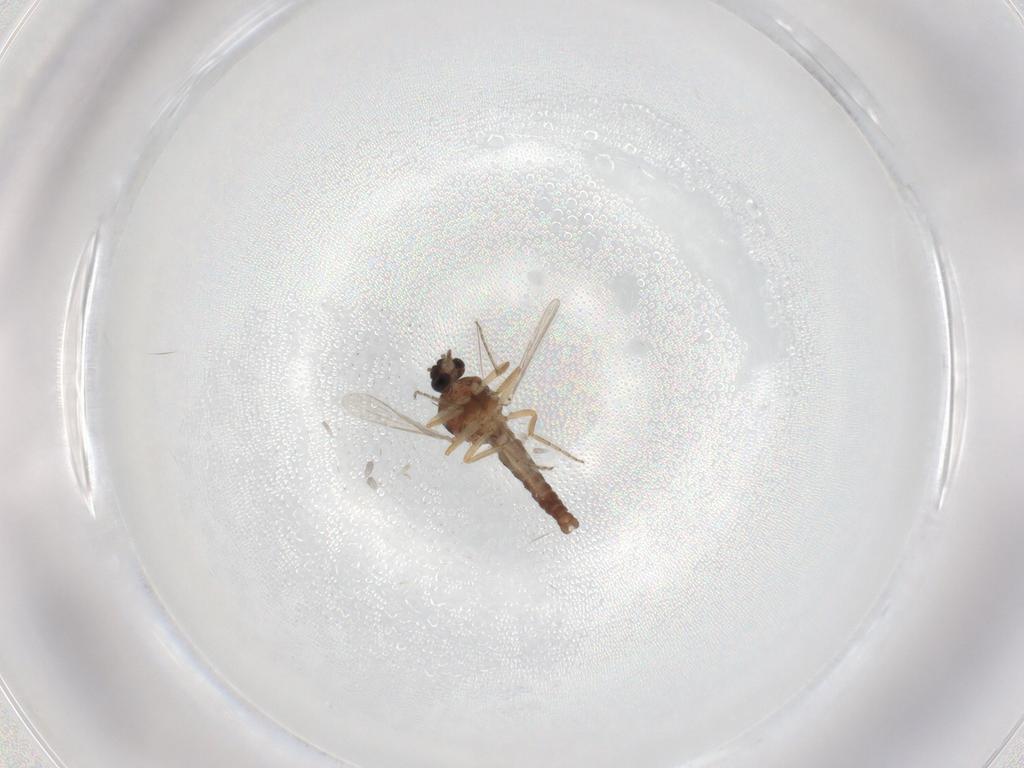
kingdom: Animalia
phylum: Arthropoda
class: Insecta
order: Diptera
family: Ceratopogonidae
